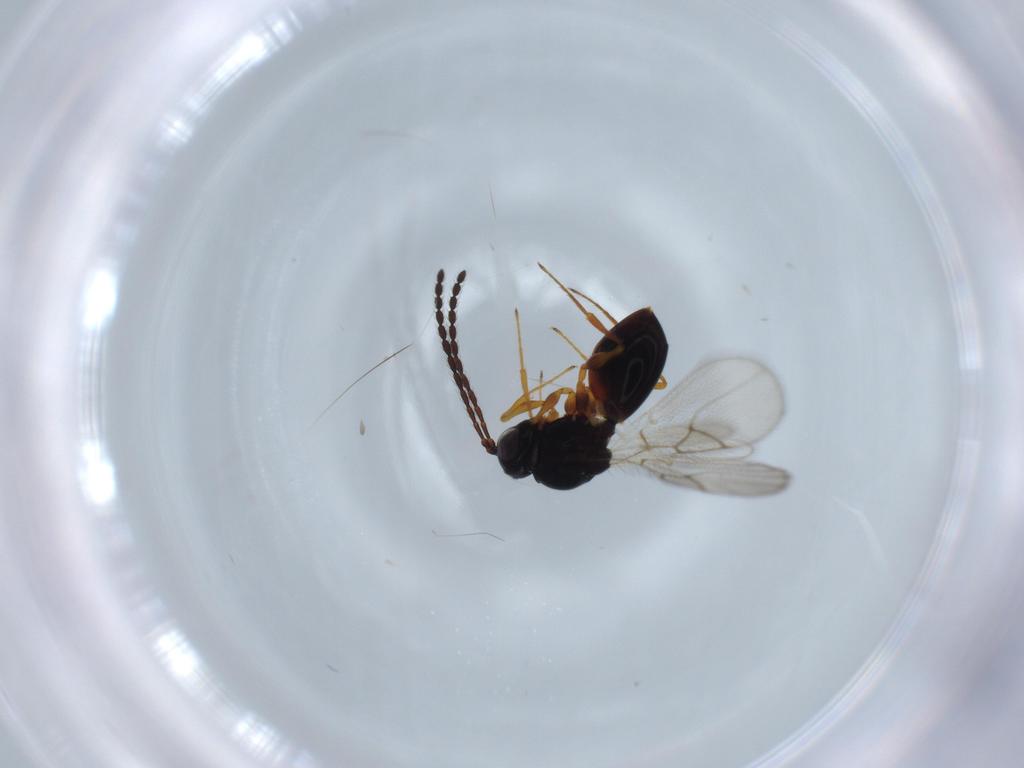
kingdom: Animalia
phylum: Arthropoda
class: Insecta
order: Hymenoptera
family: Figitidae
